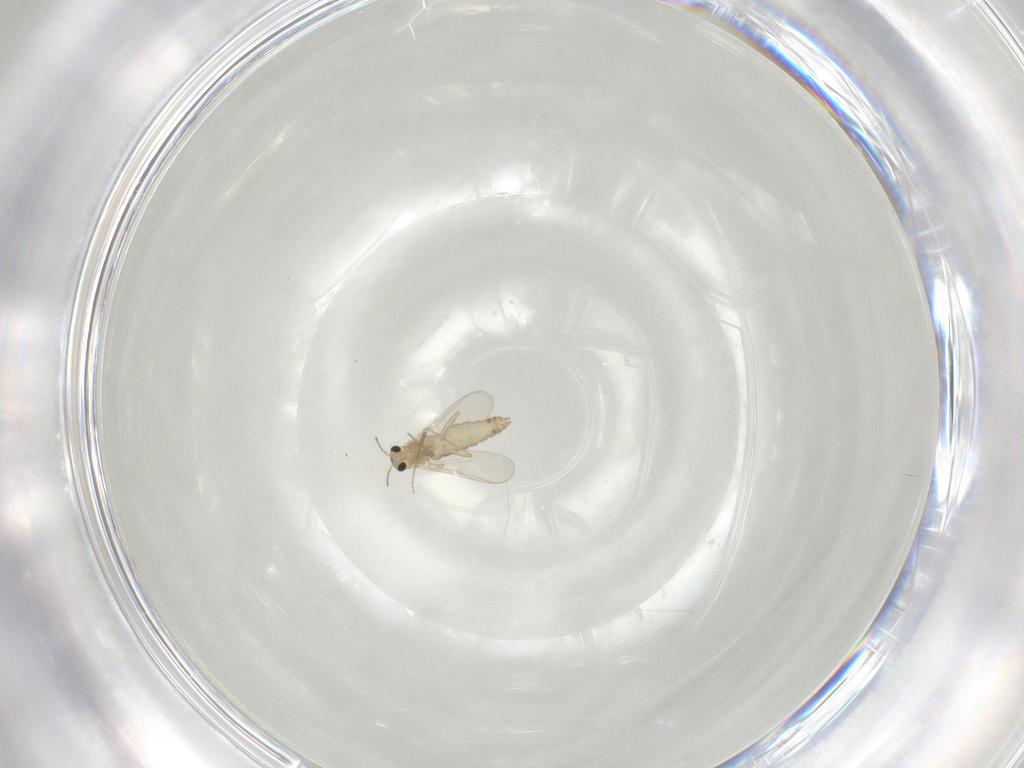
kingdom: Animalia
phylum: Arthropoda
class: Insecta
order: Diptera
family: Chironomidae
